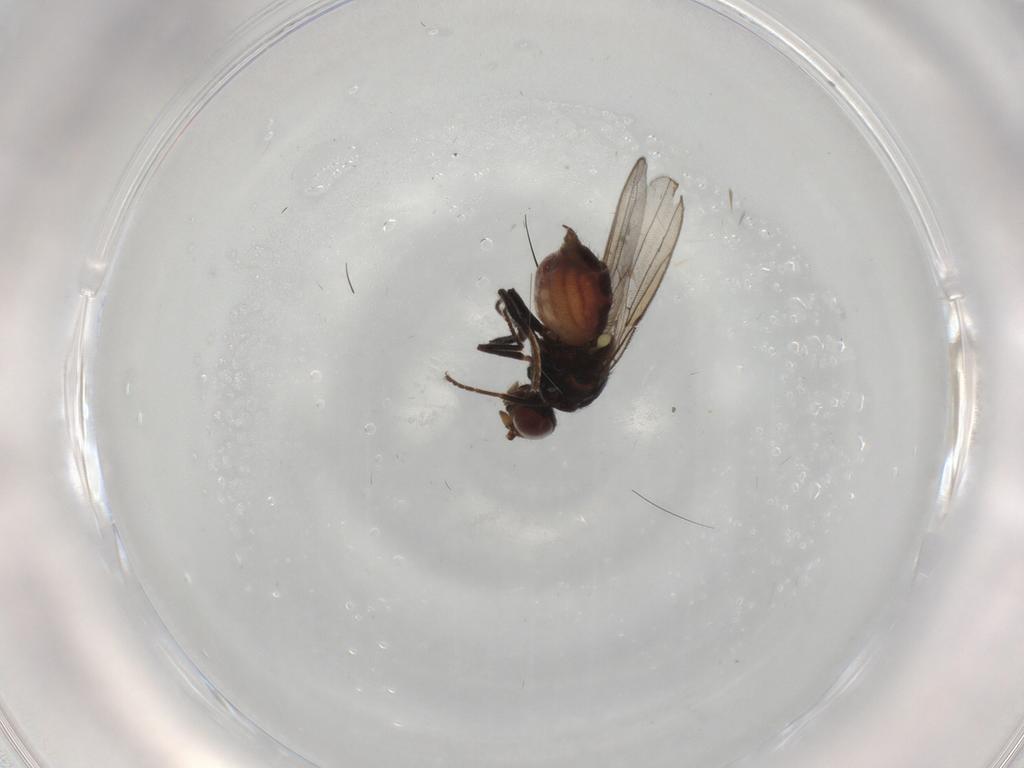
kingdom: Animalia
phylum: Arthropoda
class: Insecta
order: Diptera
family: Chloropidae
